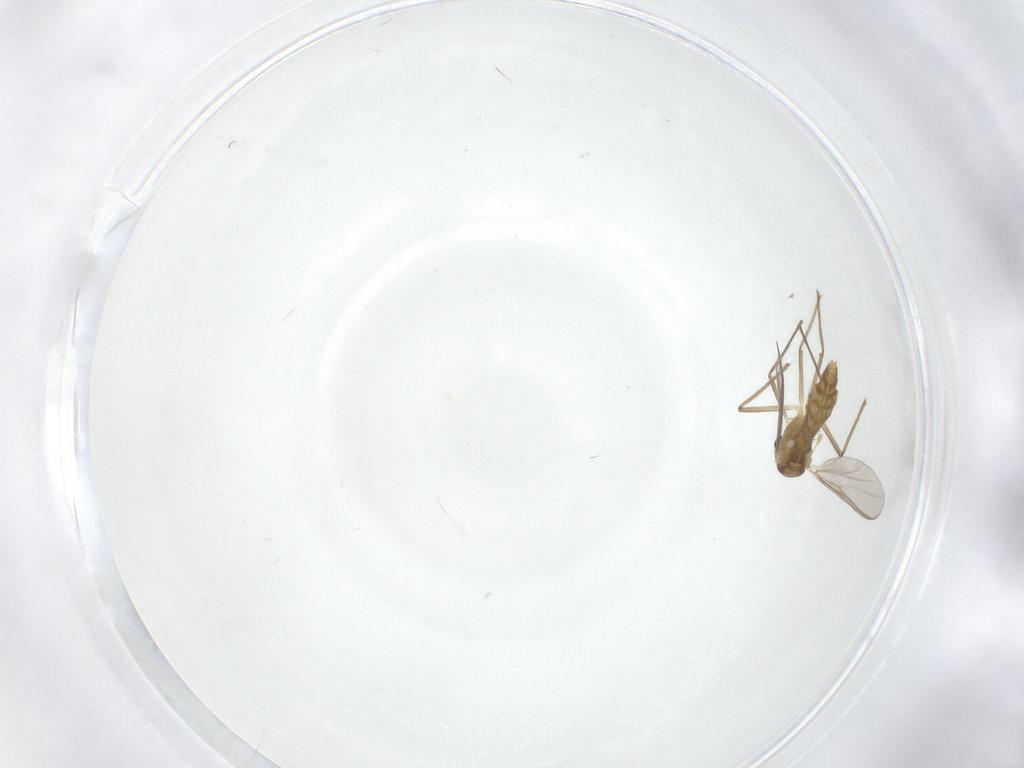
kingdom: Animalia
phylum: Arthropoda
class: Insecta
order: Diptera
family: Chironomidae
